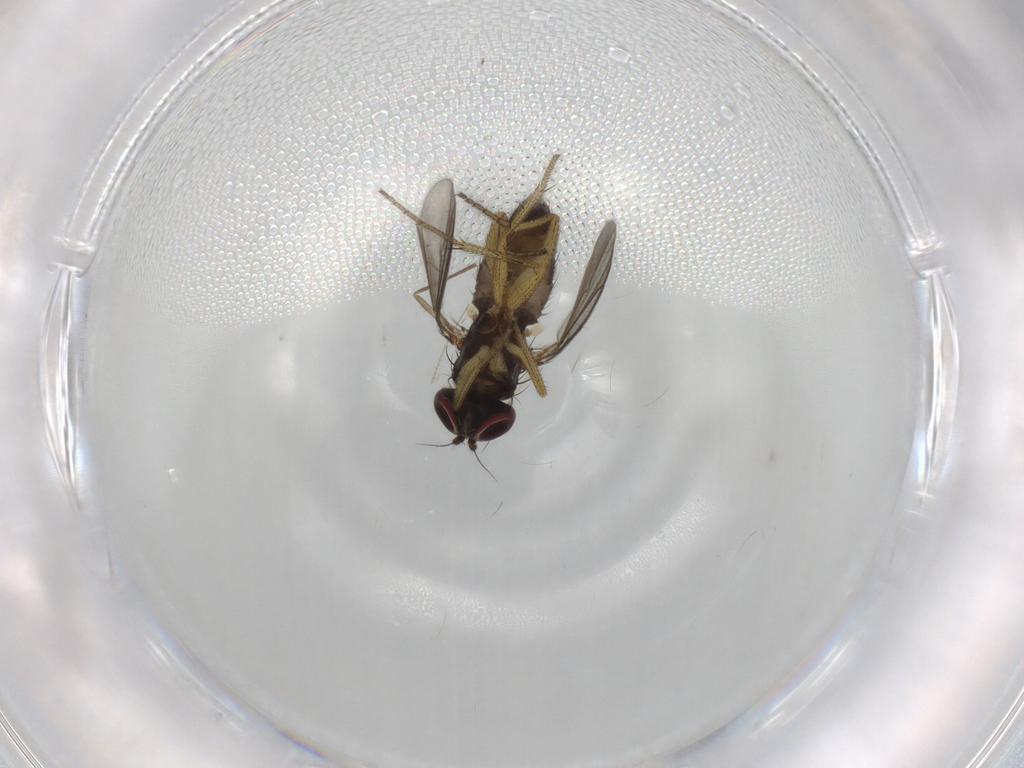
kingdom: Animalia
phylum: Arthropoda
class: Insecta
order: Diptera
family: Chironomidae
